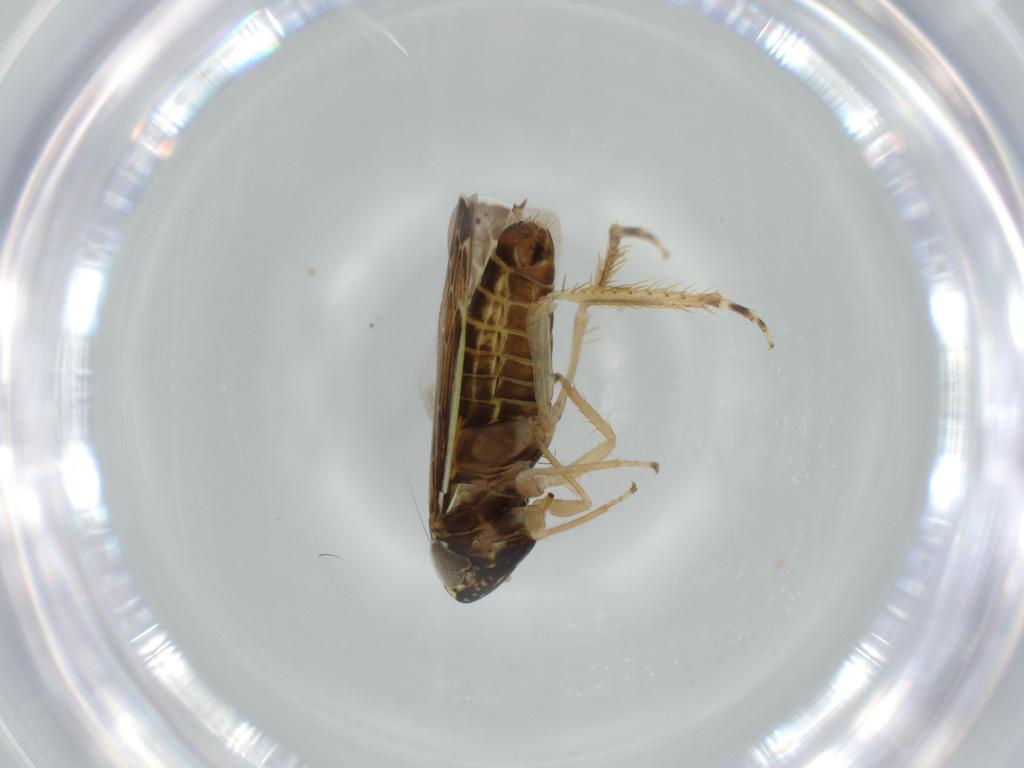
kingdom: Animalia
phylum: Arthropoda
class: Insecta
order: Hemiptera
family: Cicadellidae
